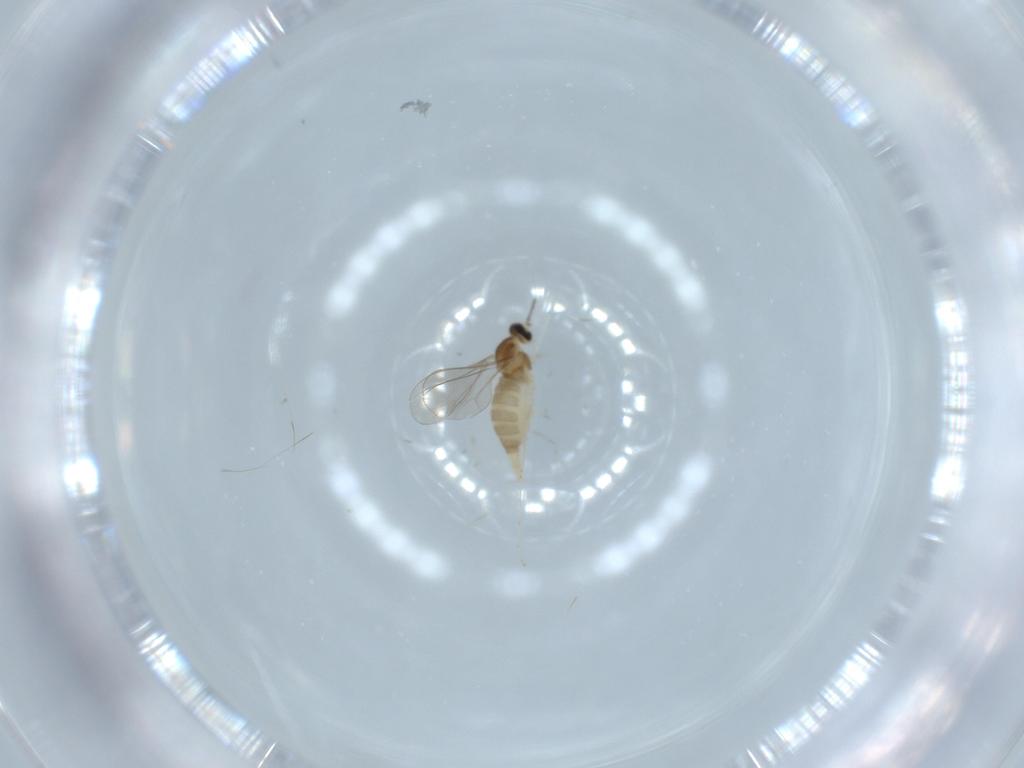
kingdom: Animalia
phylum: Arthropoda
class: Insecta
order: Diptera
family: Cecidomyiidae
